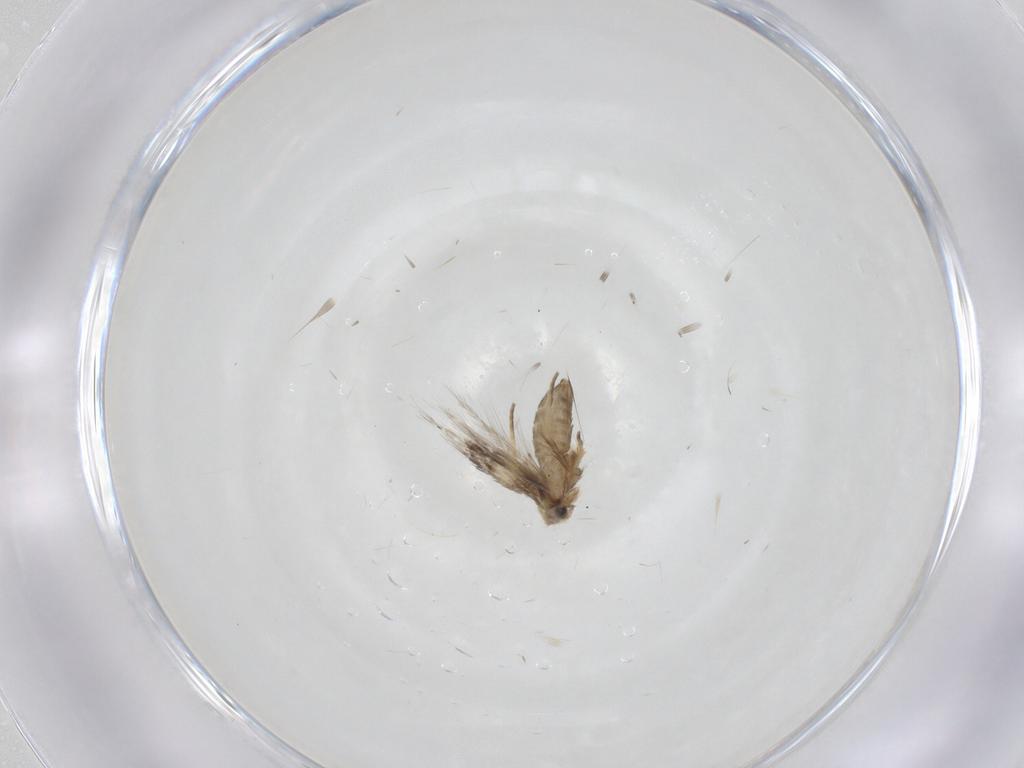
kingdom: Animalia
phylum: Arthropoda
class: Insecta
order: Lepidoptera
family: Nepticulidae
